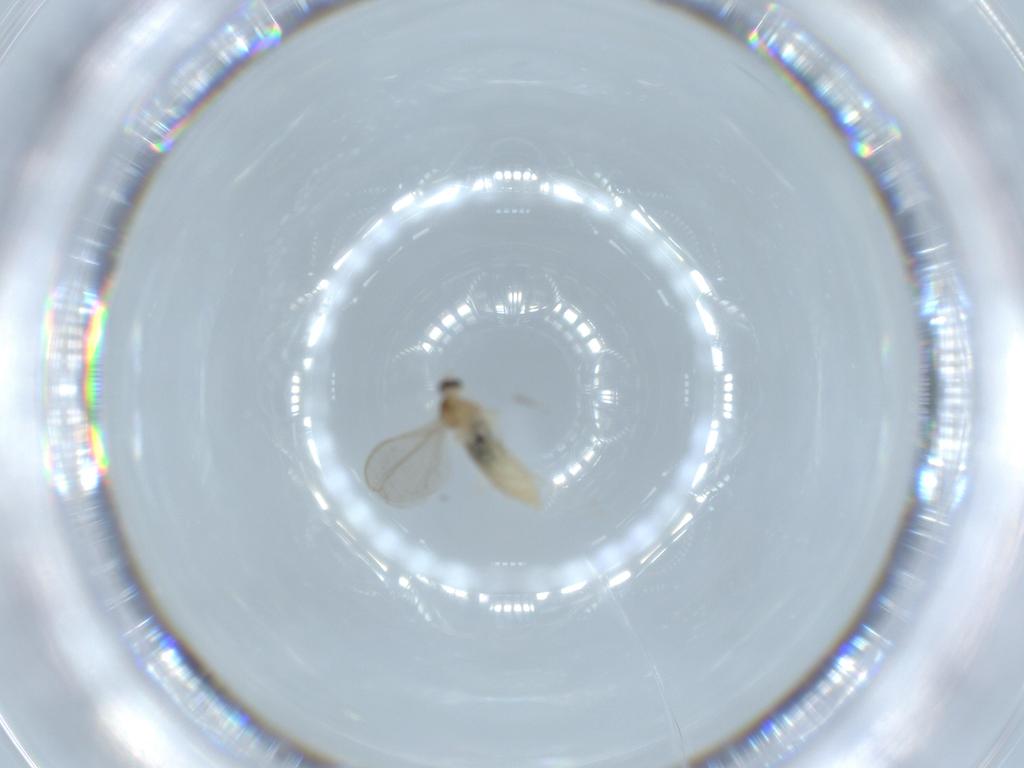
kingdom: Animalia
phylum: Arthropoda
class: Insecta
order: Diptera
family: Cecidomyiidae
